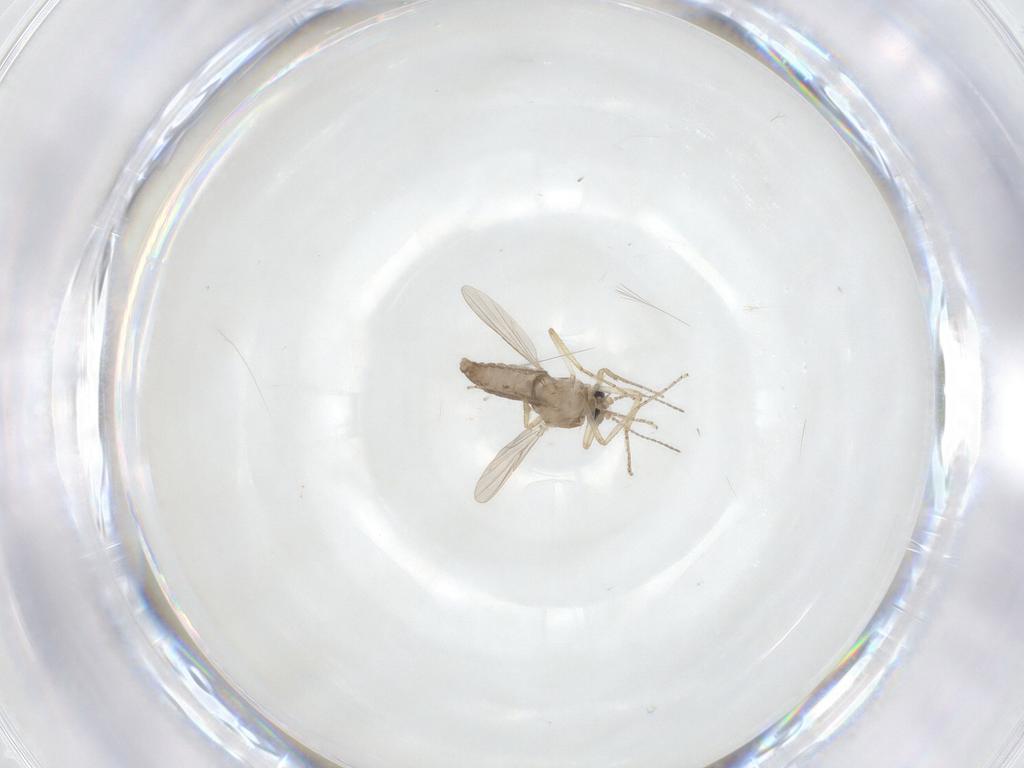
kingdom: Animalia
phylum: Arthropoda
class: Insecta
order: Diptera
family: Ceratopogonidae
